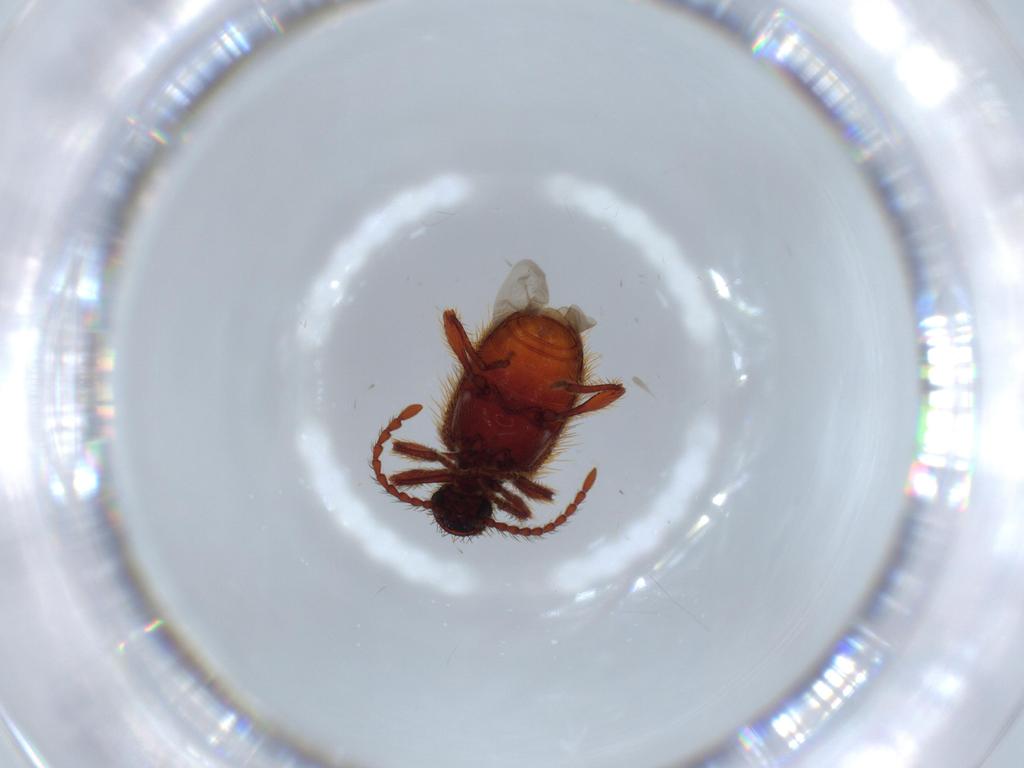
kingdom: Animalia
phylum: Arthropoda
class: Insecta
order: Coleoptera
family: Ptinidae
